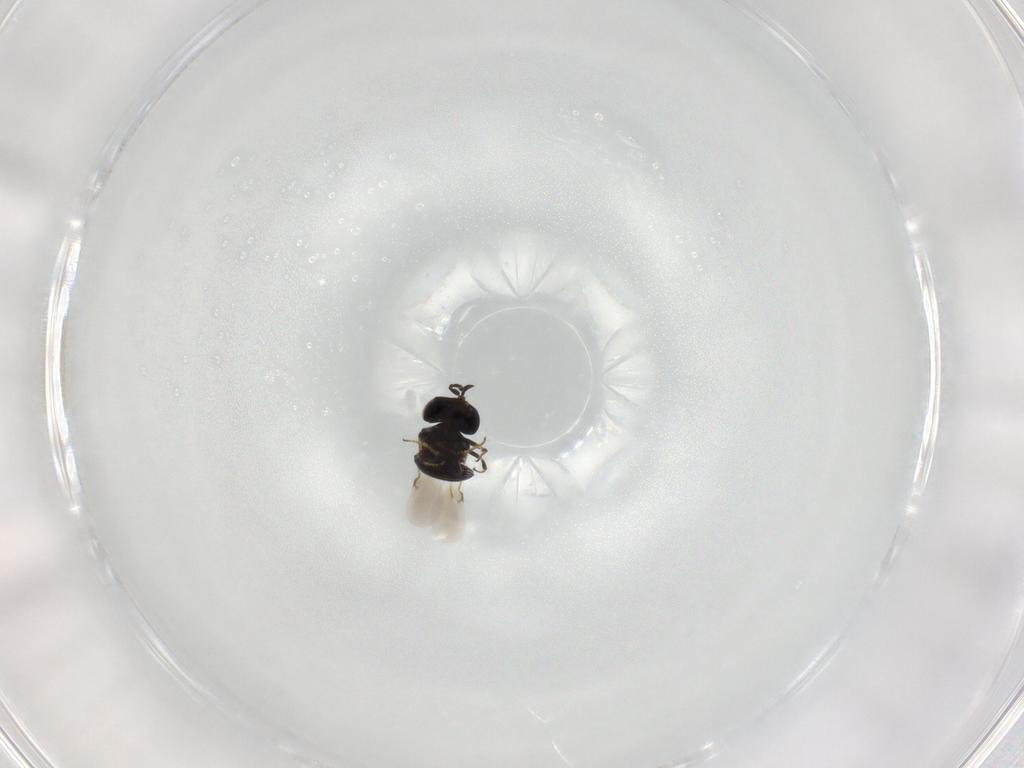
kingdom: Animalia
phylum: Arthropoda
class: Insecta
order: Hymenoptera
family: Scelionidae
